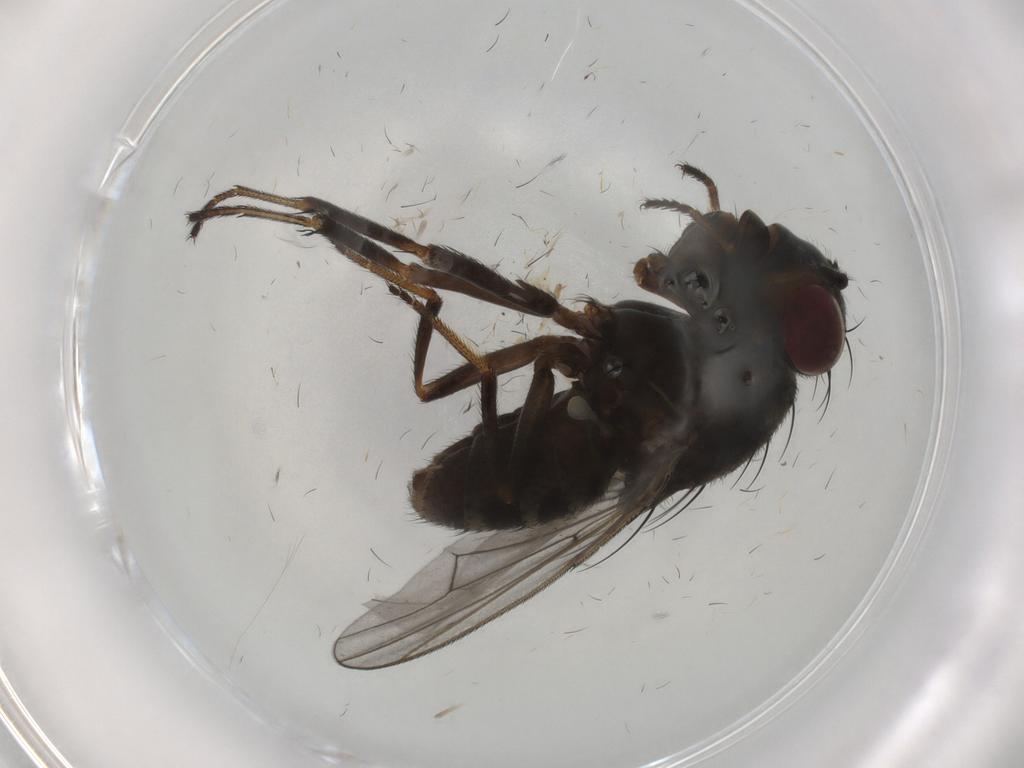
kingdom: Animalia
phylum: Arthropoda
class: Insecta
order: Diptera
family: Ephydridae
